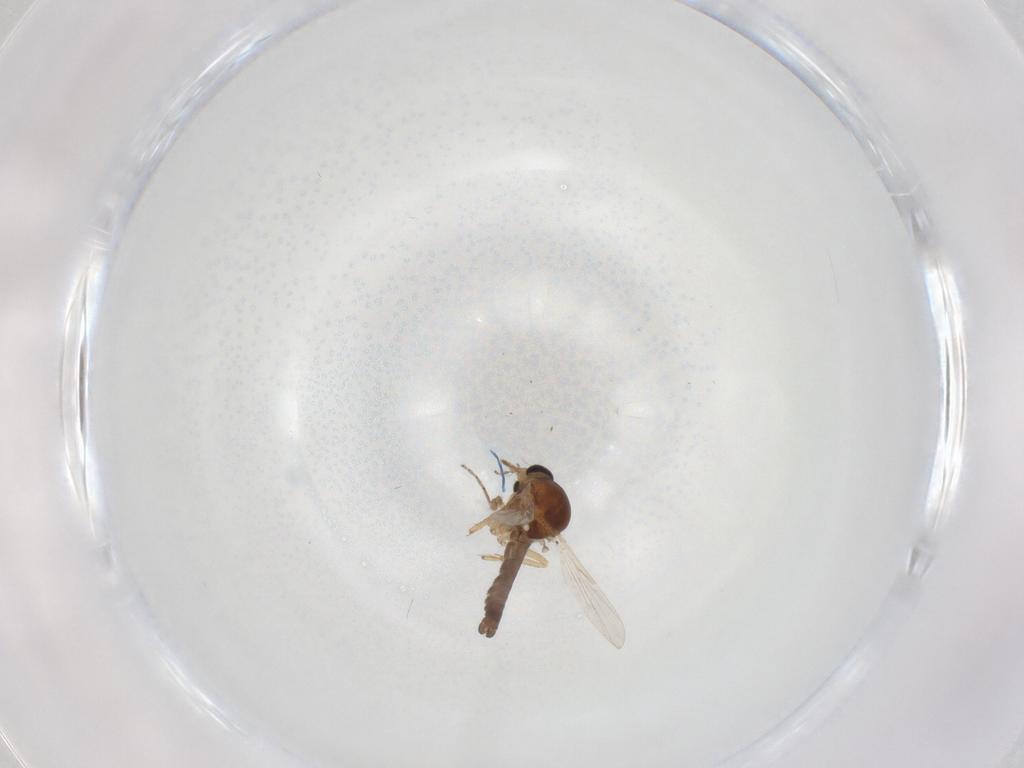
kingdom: Animalia
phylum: Arthropoda
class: Insecta
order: Diptera
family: Ceratopogonidae
